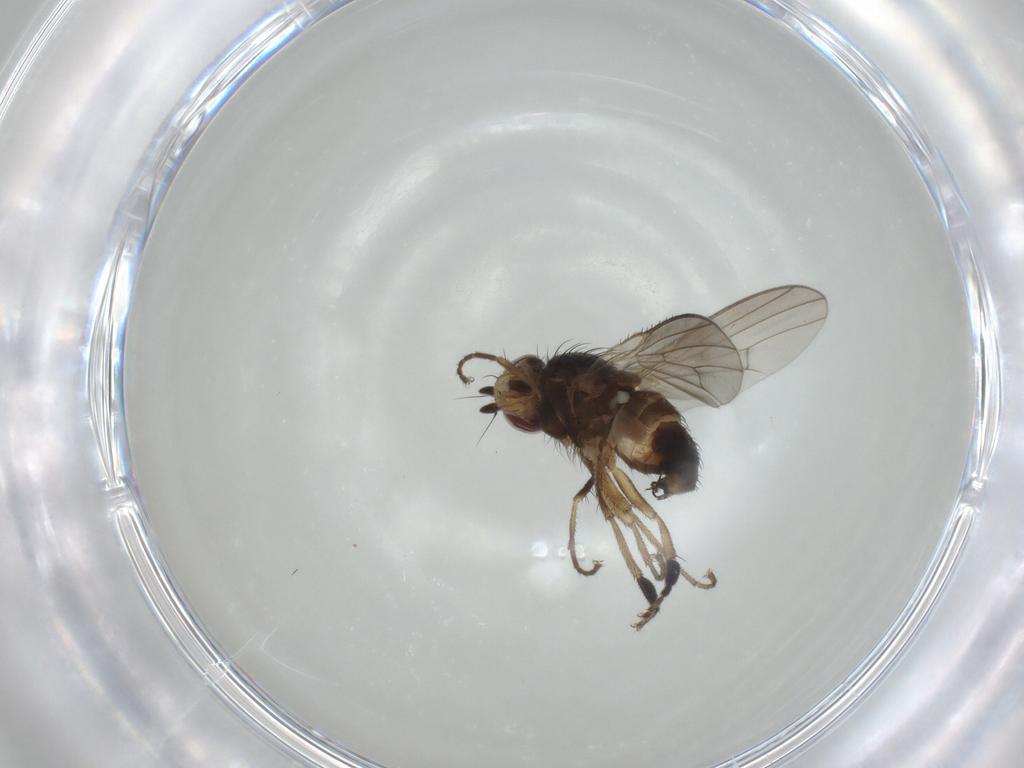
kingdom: Animalia
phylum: Arthropoda
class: Insecta
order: Diptera
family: Heleomyzidae
